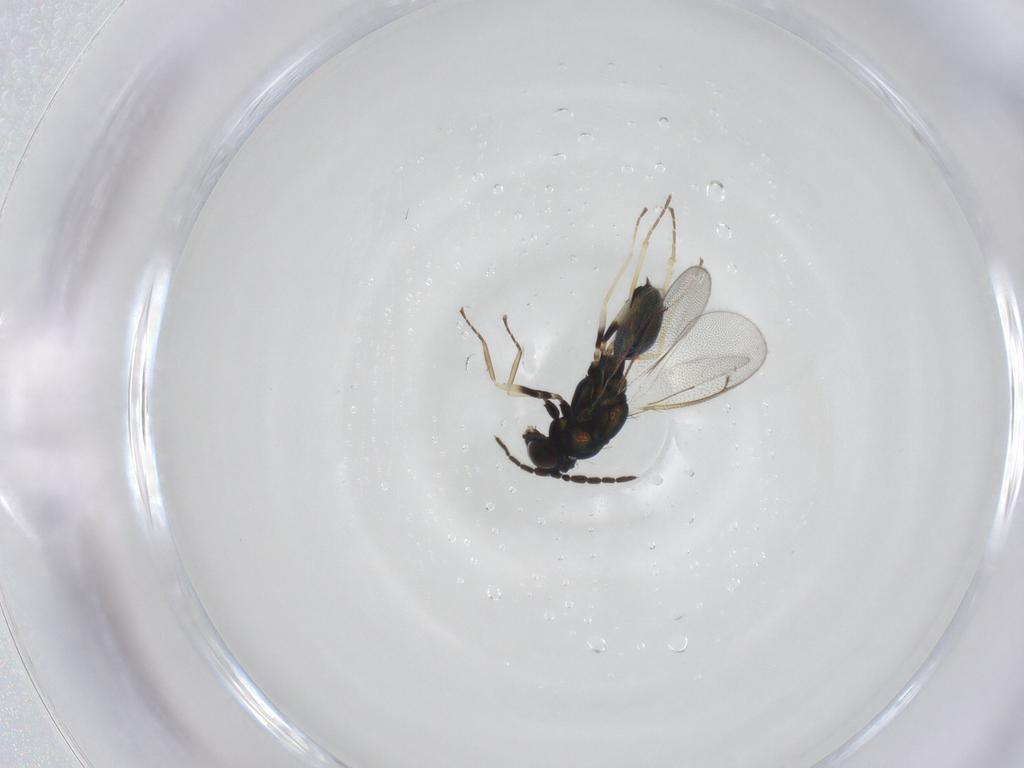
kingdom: Animalia
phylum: Arthropoda
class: Insecta
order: Hymenoptera
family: Eulophidae
